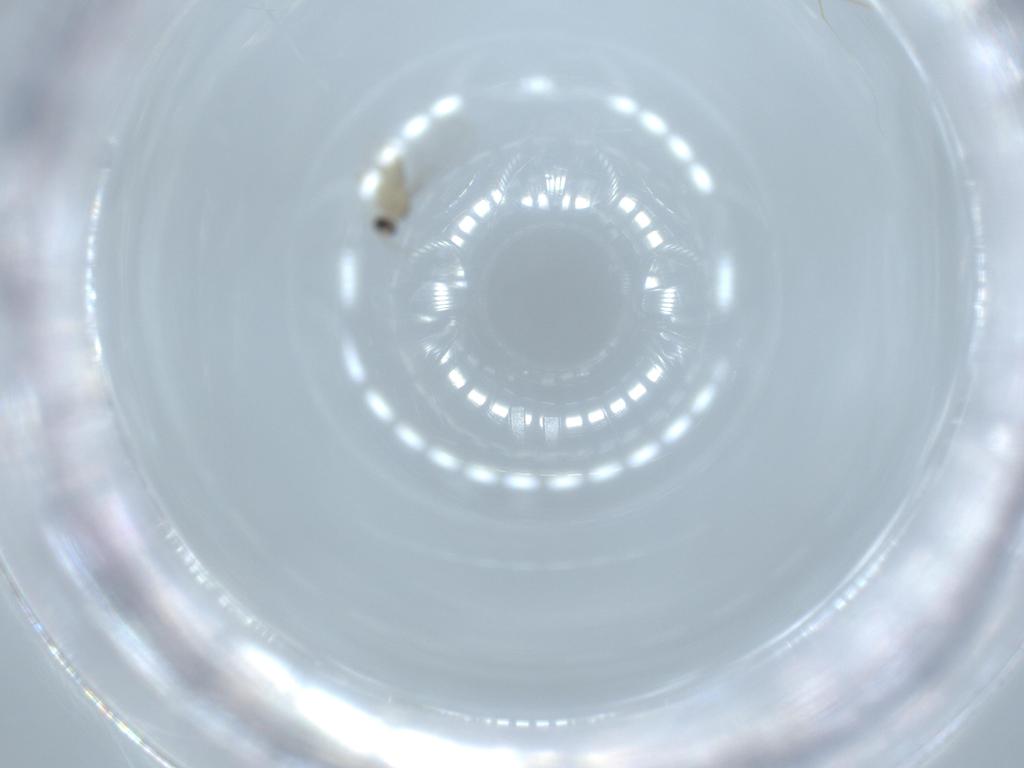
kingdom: Animalia
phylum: Arthropoda
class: Insecta
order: Diptera
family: Cecidomyiidae
